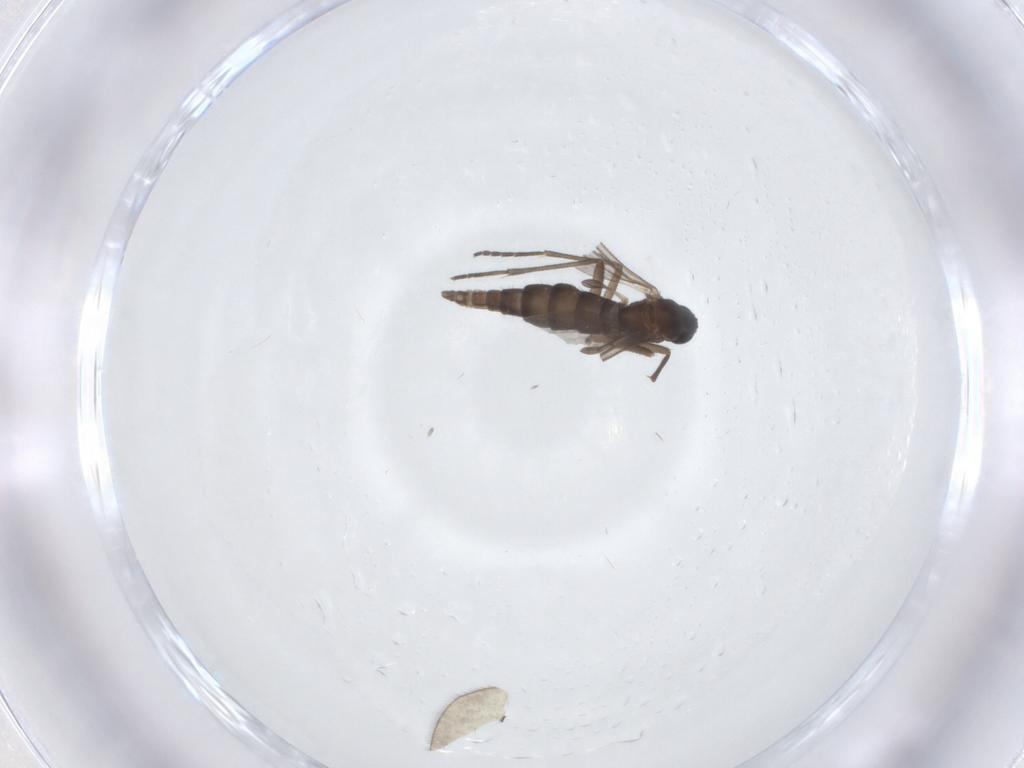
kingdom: Animalia
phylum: Arthropoda
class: Insecta
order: Diptera
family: Sciaridae
